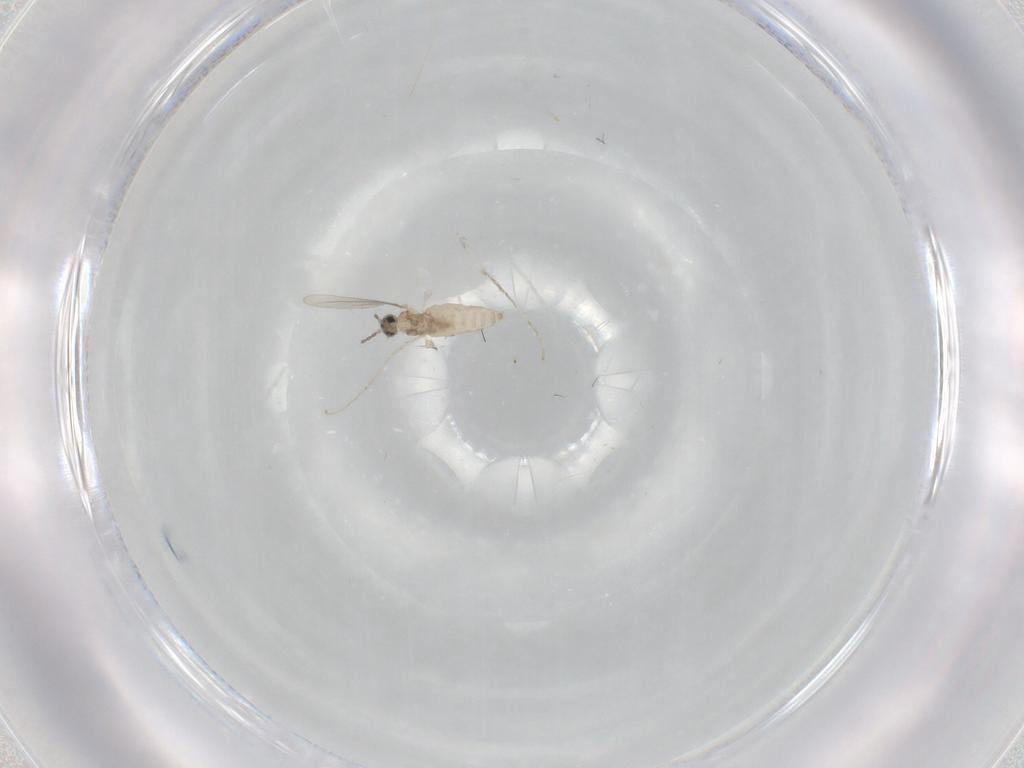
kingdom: Animalia
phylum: Arthropoda
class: Insecta
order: Diptera
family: Cecidomyiidae
